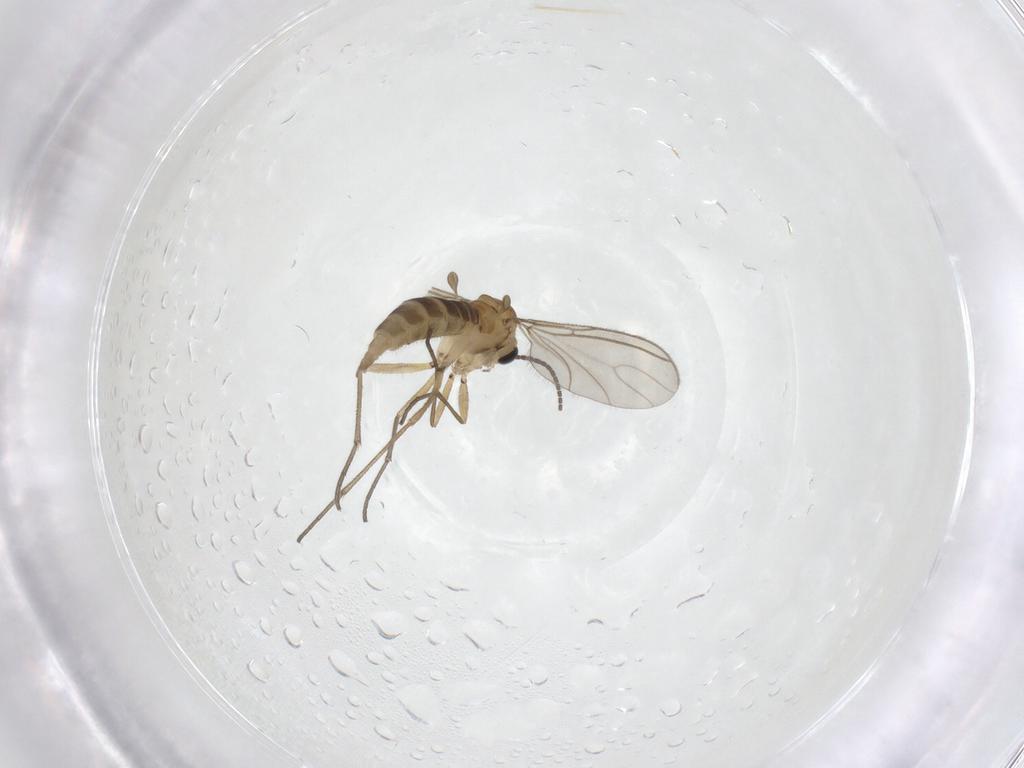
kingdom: Animalia
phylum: Arthropoda
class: Insecta
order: Diptera
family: Sciaridae
